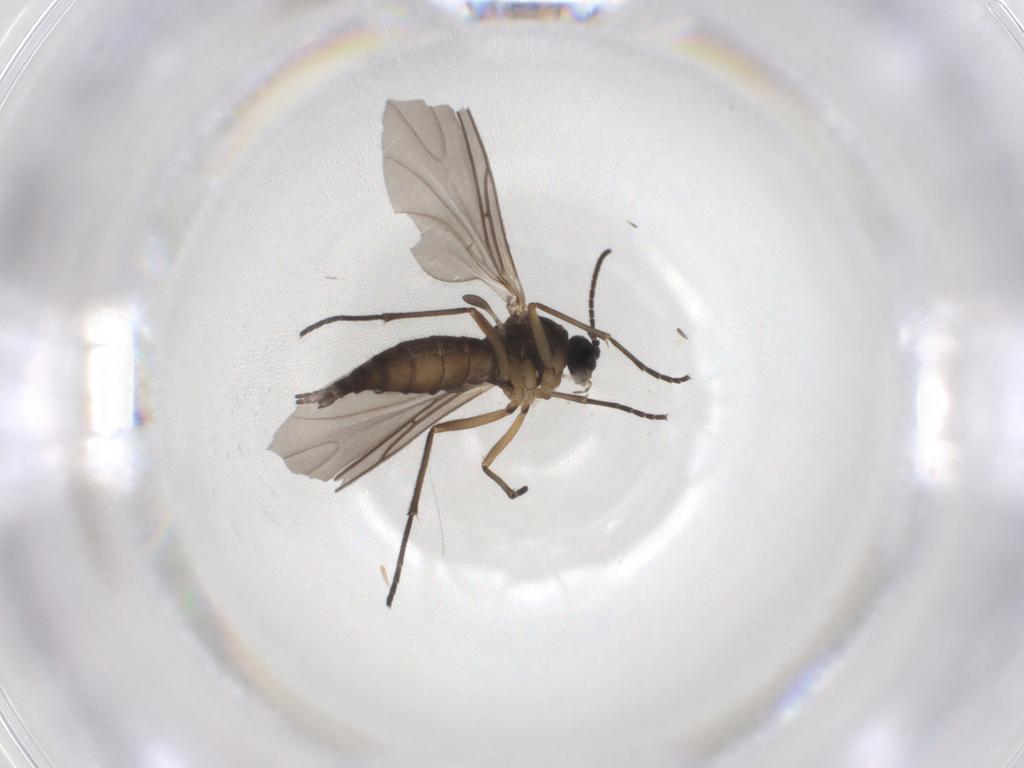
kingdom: Animalia
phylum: Arthropoda
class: Insecta
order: Diptera
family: Sciaridae
